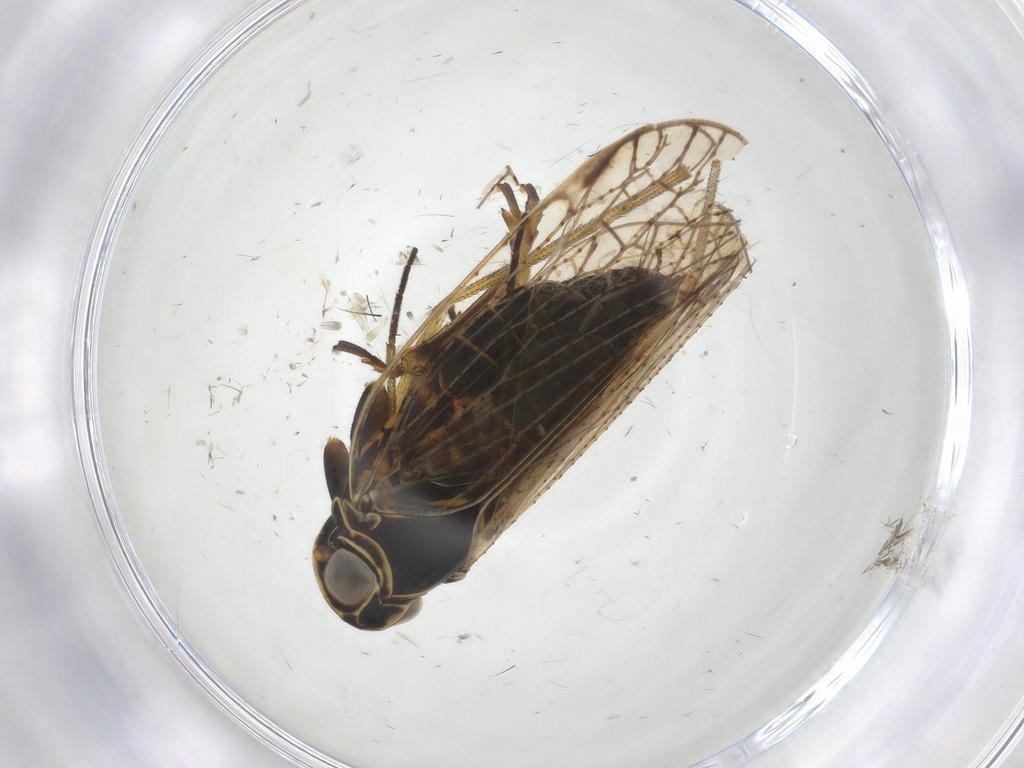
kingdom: Animalia
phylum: Arthropoda
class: Insecta
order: Hemiptera
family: Cixiidae
